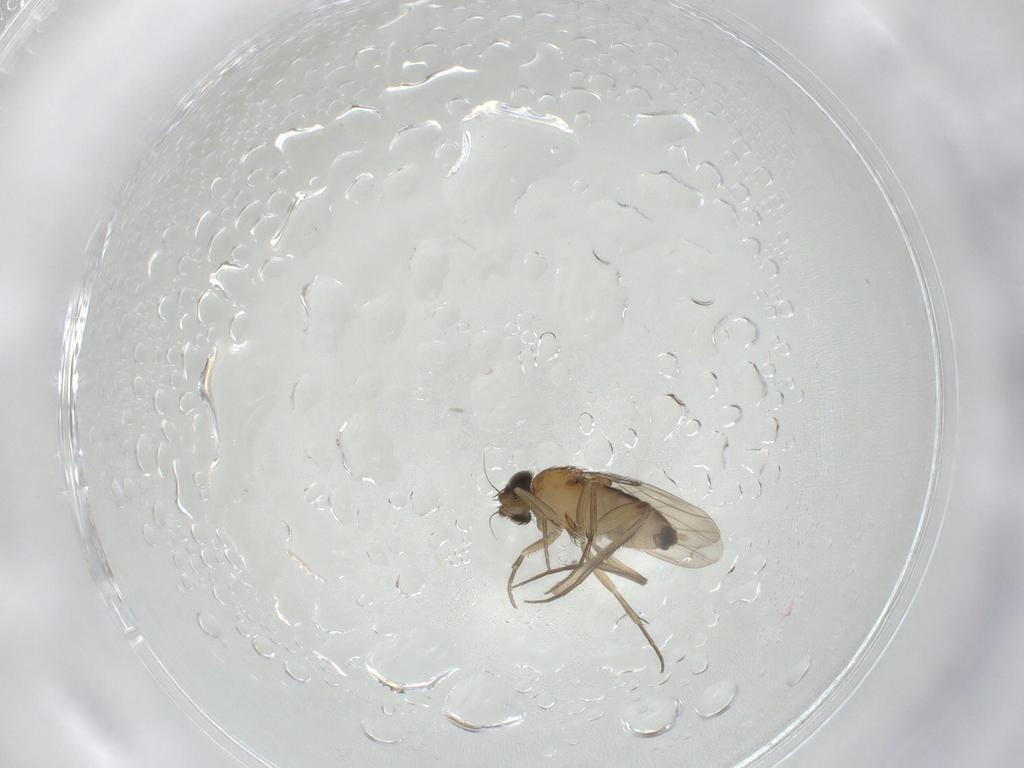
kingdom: Animalia
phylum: Arthropoda
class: Insecta
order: Diptera
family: Phoridae
